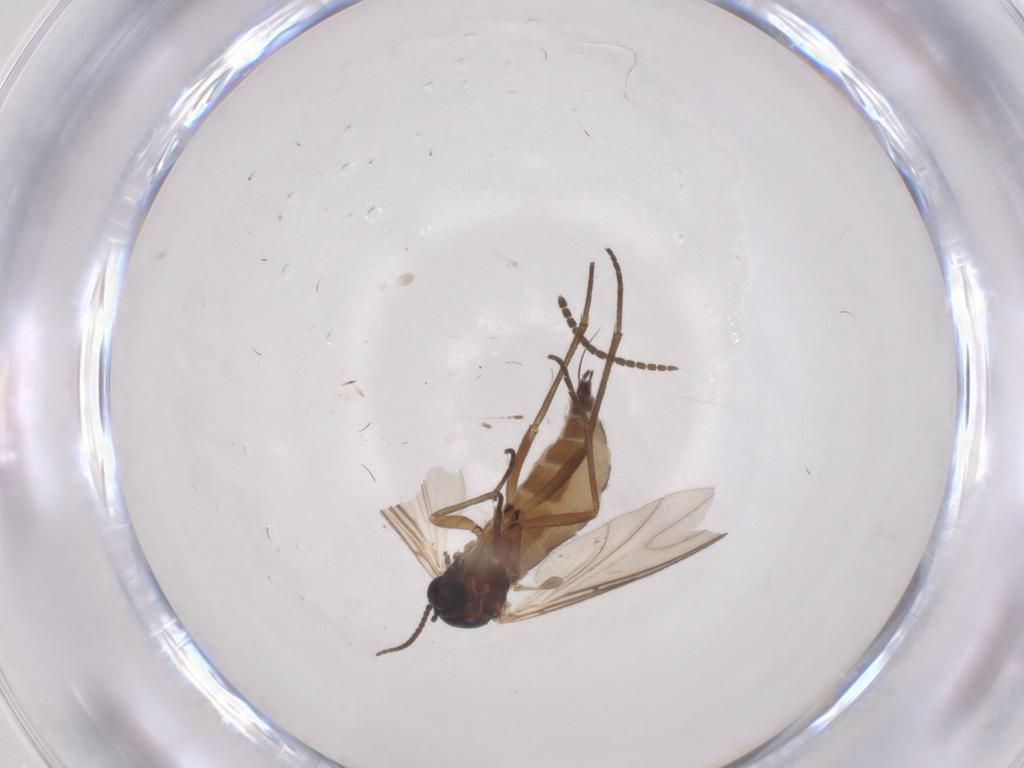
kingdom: Animalia
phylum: Arthropoda
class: Insecta
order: Diptera
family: Sciaridae
